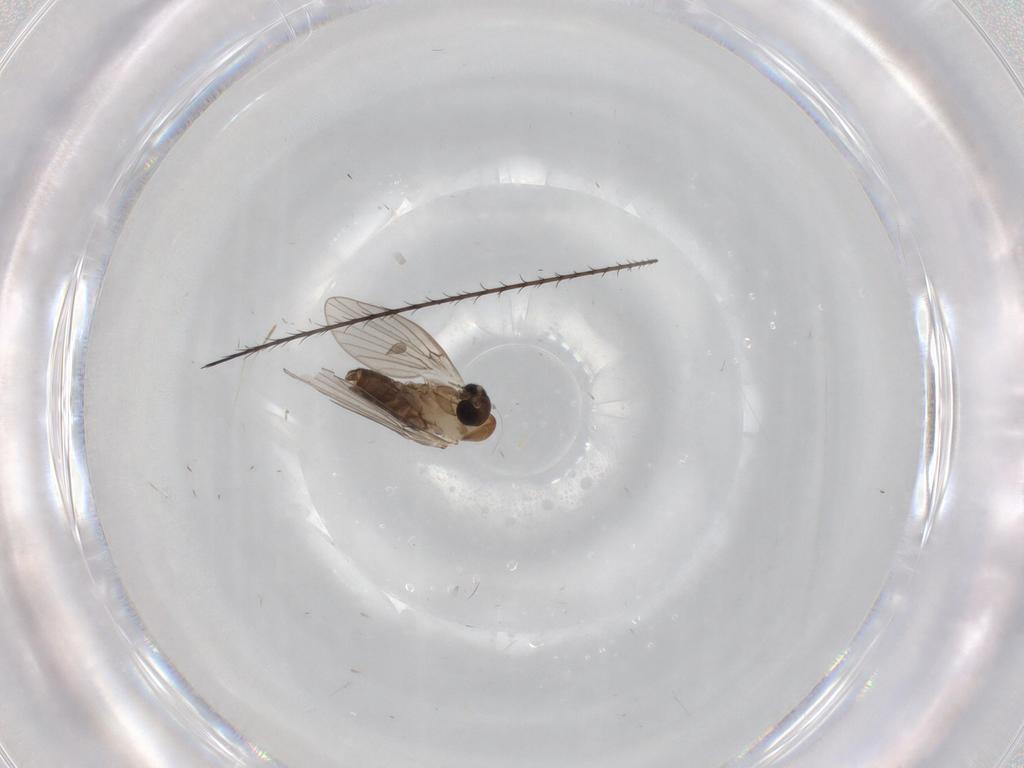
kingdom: Animalia
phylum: Arthropoda
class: Insecta
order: Diptera
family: Psychodidae
